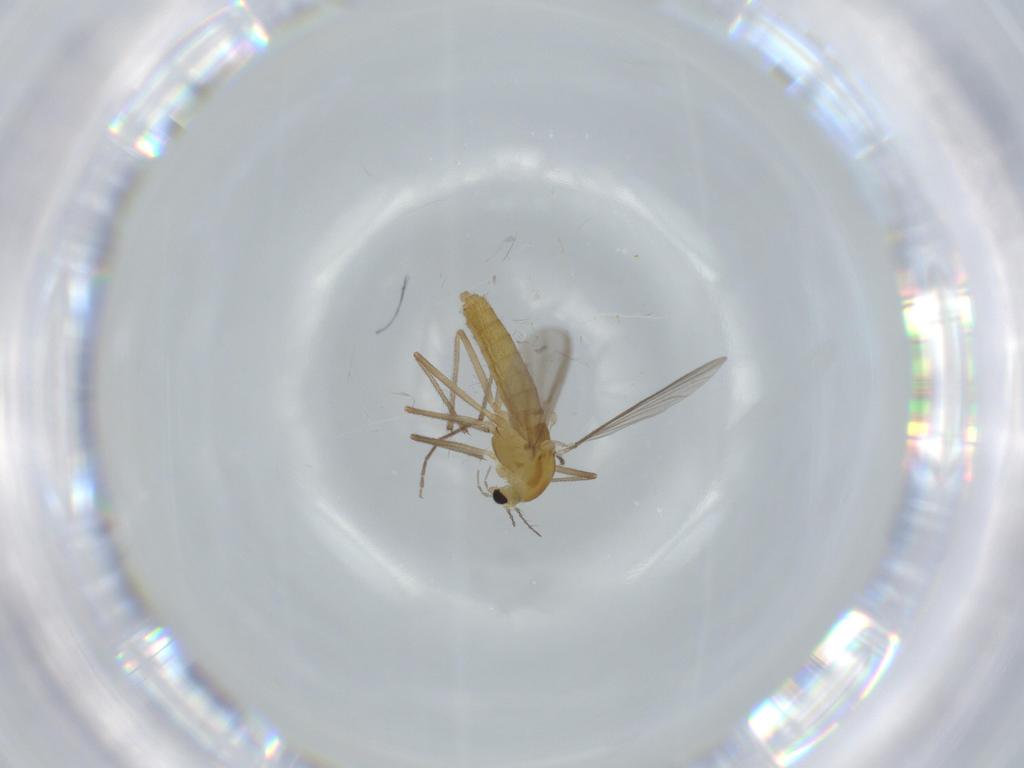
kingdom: Animalia
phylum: Arthropoda
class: Insecta
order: Diptera
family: Chironomidae
